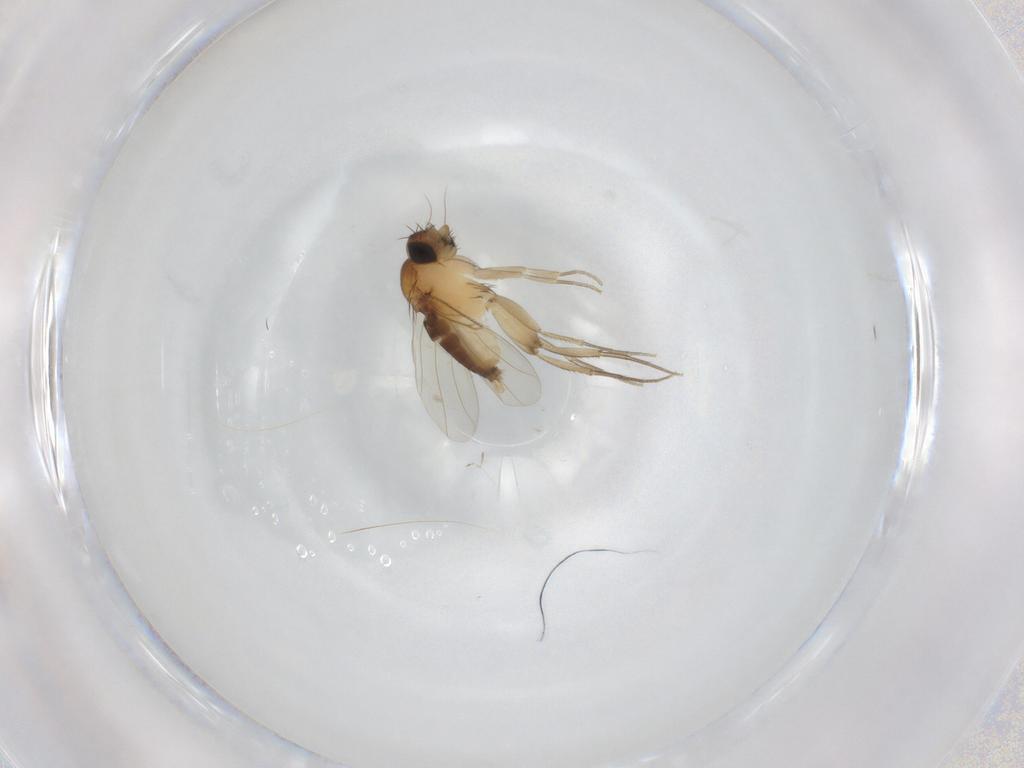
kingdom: Animalia
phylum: Arthropoda
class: Insecta
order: Diptera
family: Phoridae
